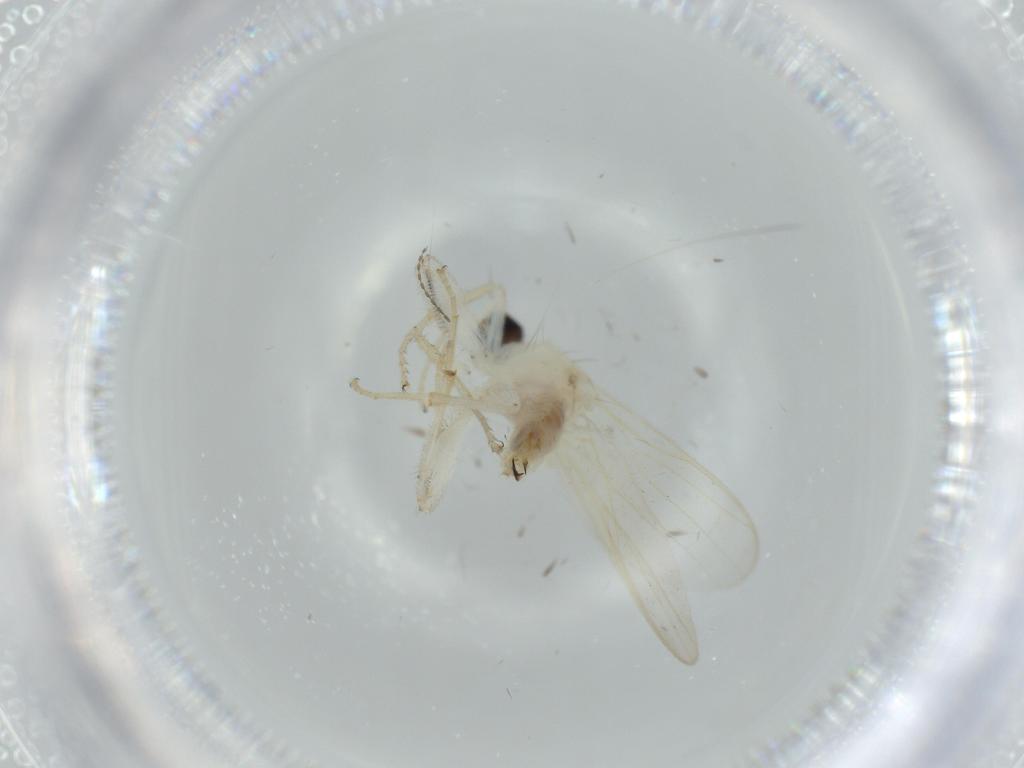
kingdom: Animalia
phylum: Arthropoda
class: Insecta
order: Diptera
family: Hybotidae
